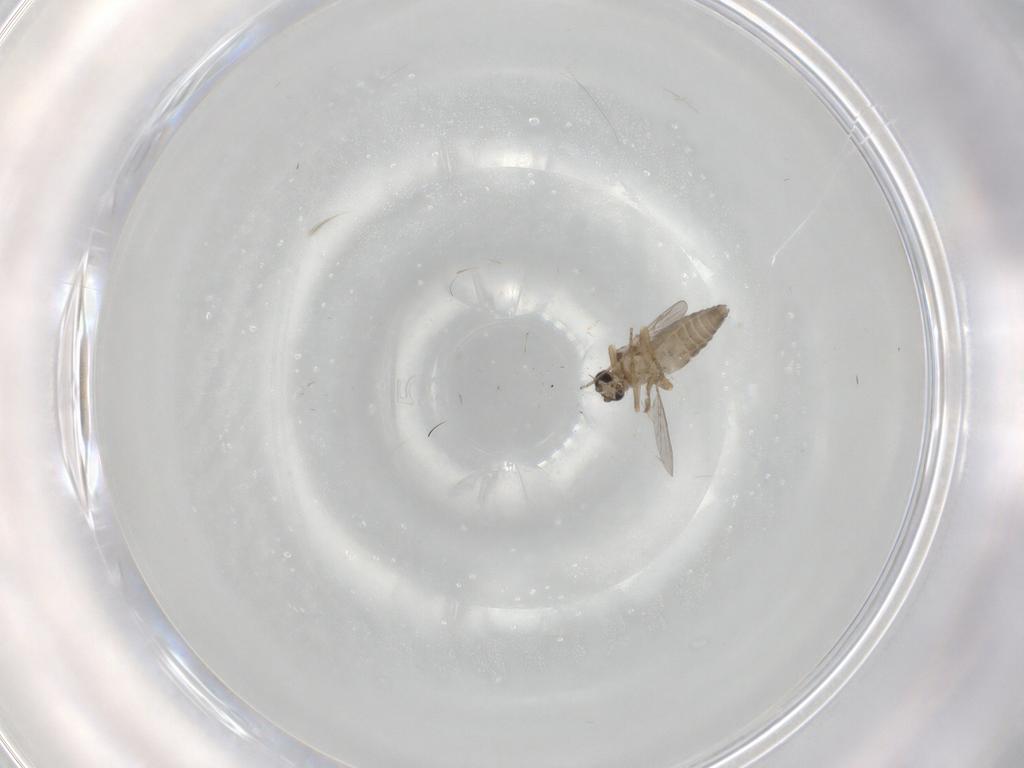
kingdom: Animalia
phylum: Arthropoda
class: Insecta
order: Diptera
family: Ceratopogonidae
